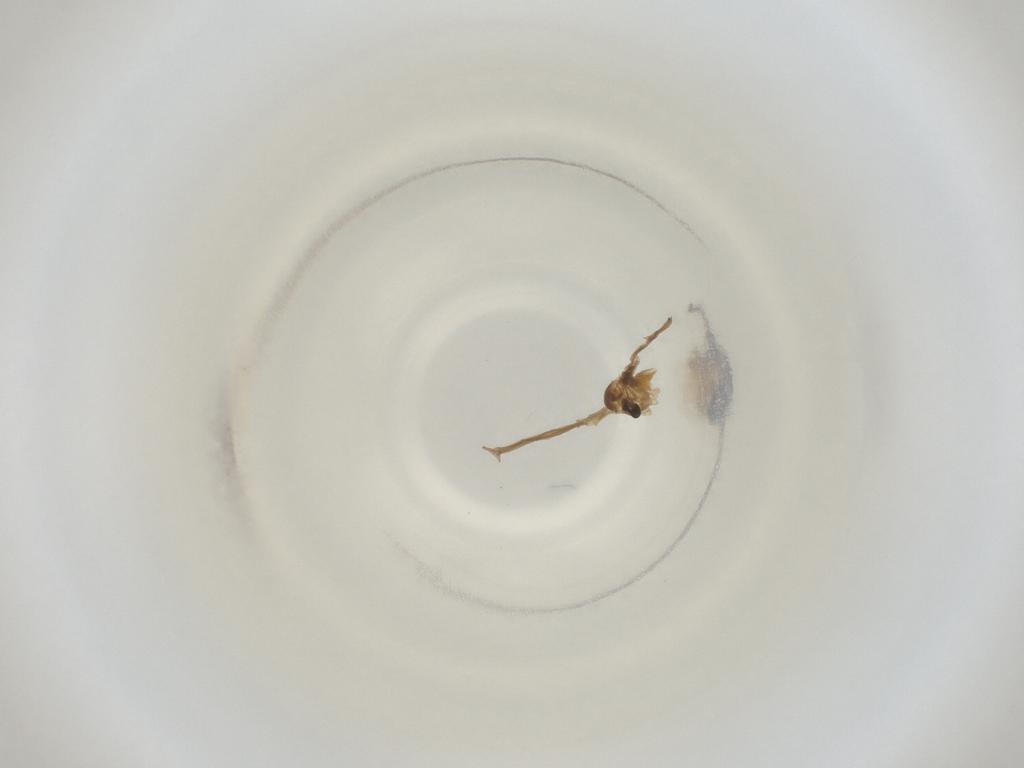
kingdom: Animalia
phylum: Arthropoda
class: Insecta
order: Diptera
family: Cecidomyiidae
